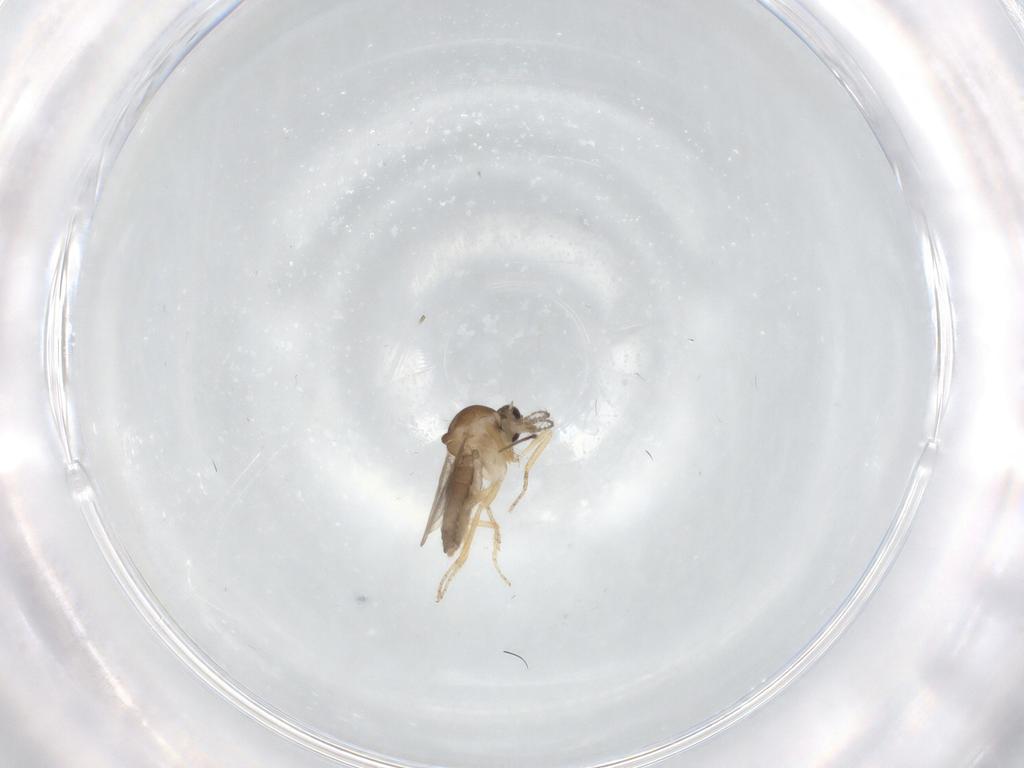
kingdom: Animalia
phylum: Arthropoda
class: Insecta
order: Diptera
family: Ceratopogonidae
